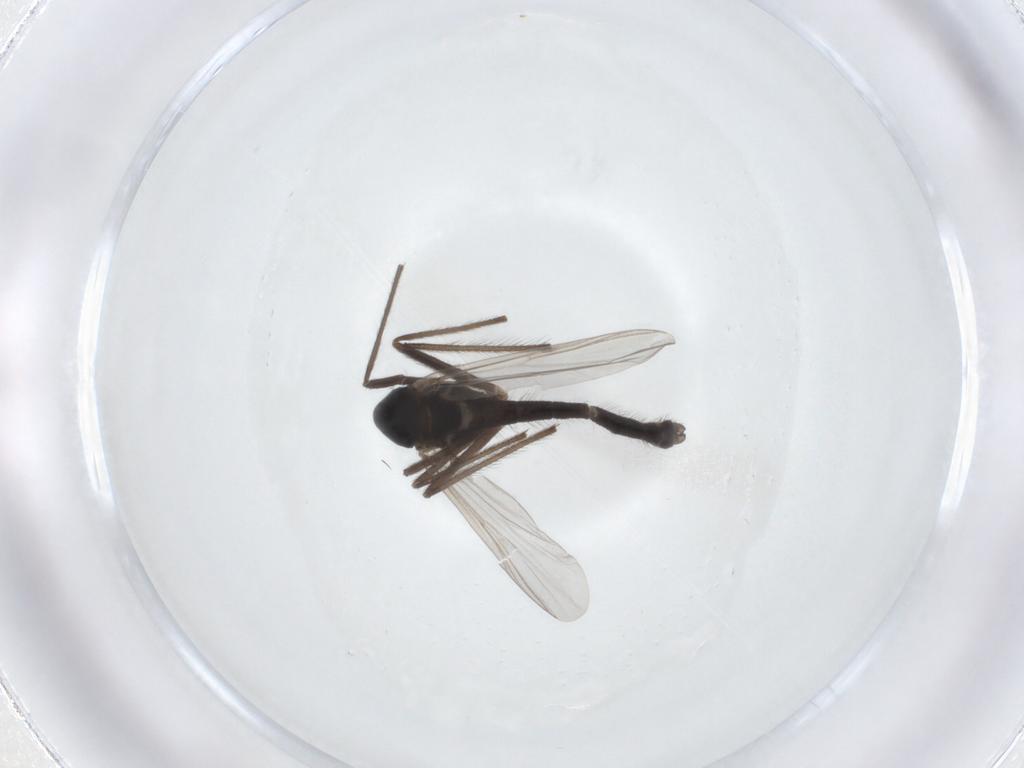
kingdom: Animalia
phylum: Arthropoda
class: Insecta
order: Diptera
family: Chironomidae
